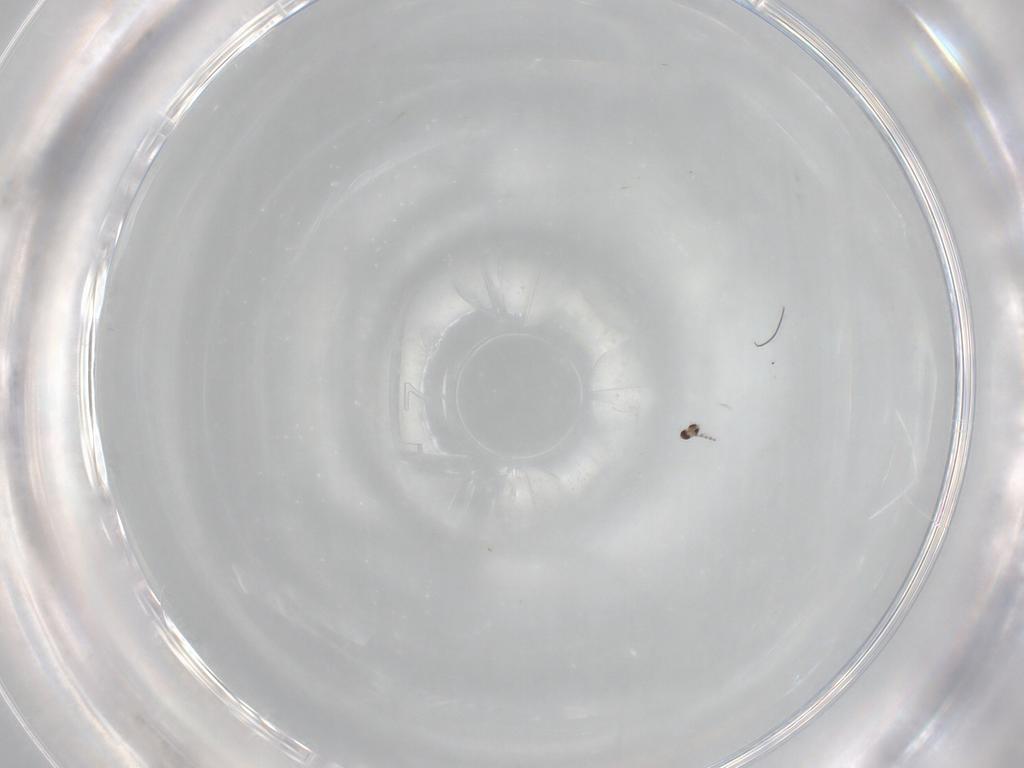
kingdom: Animalia
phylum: Arthropoda
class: Insecta
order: Diptera
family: Cecidomyiidae
